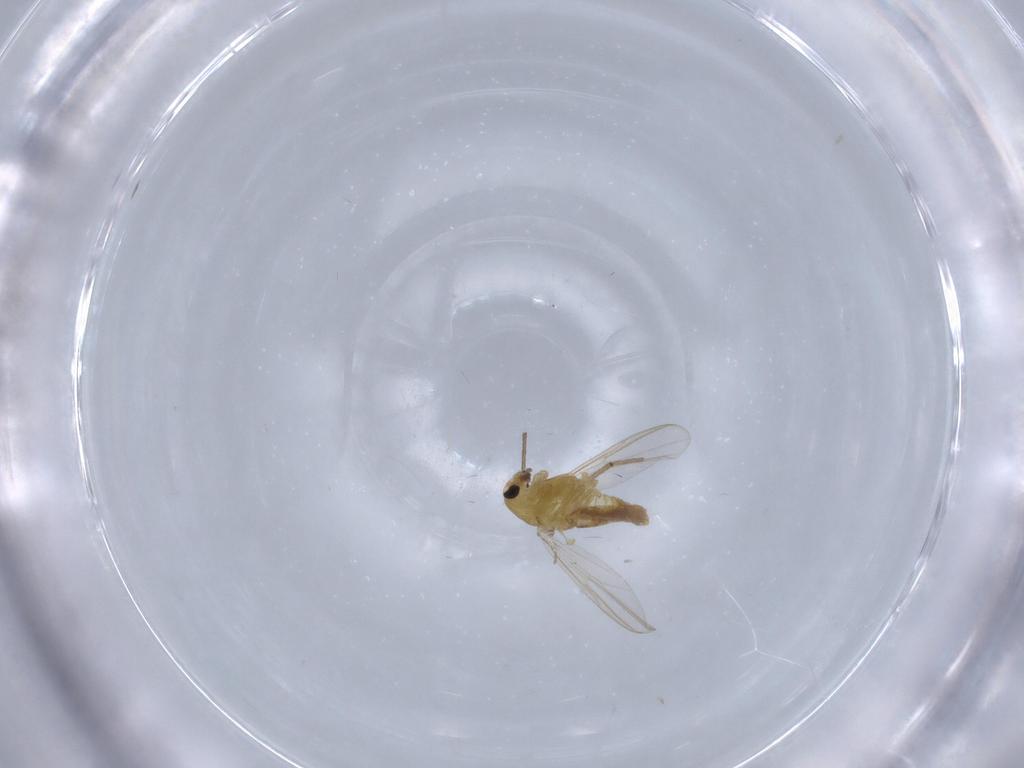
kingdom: Animalia
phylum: Arthropoda
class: Insecta
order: Diptera
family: Chironomidae
